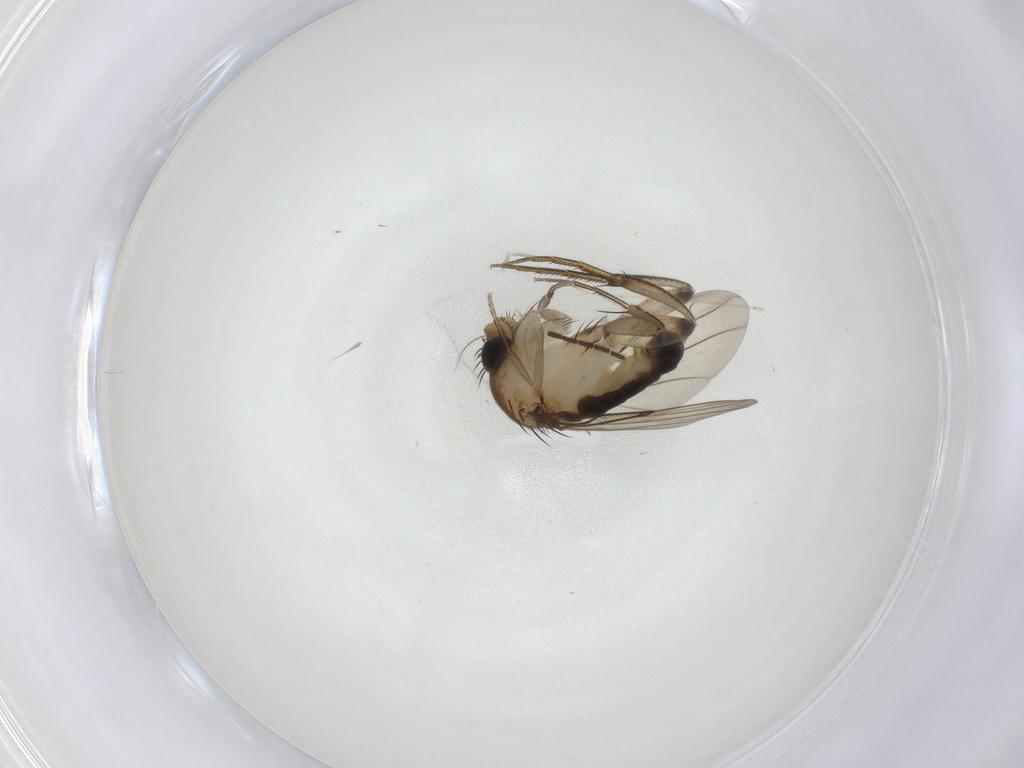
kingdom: Animalia
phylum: Arthropoda
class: Insecta
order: Diptera
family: Phoridae
